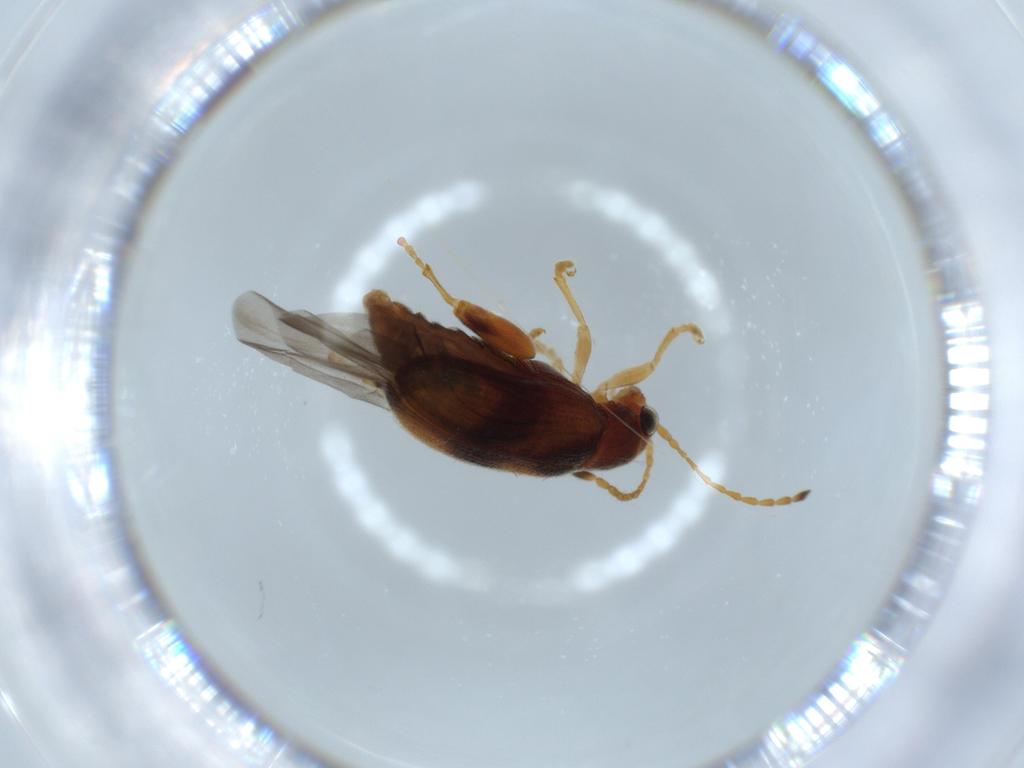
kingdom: Animalia
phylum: Arthropoda
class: Insecta
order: Coleoptera
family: Chrysomelidae
